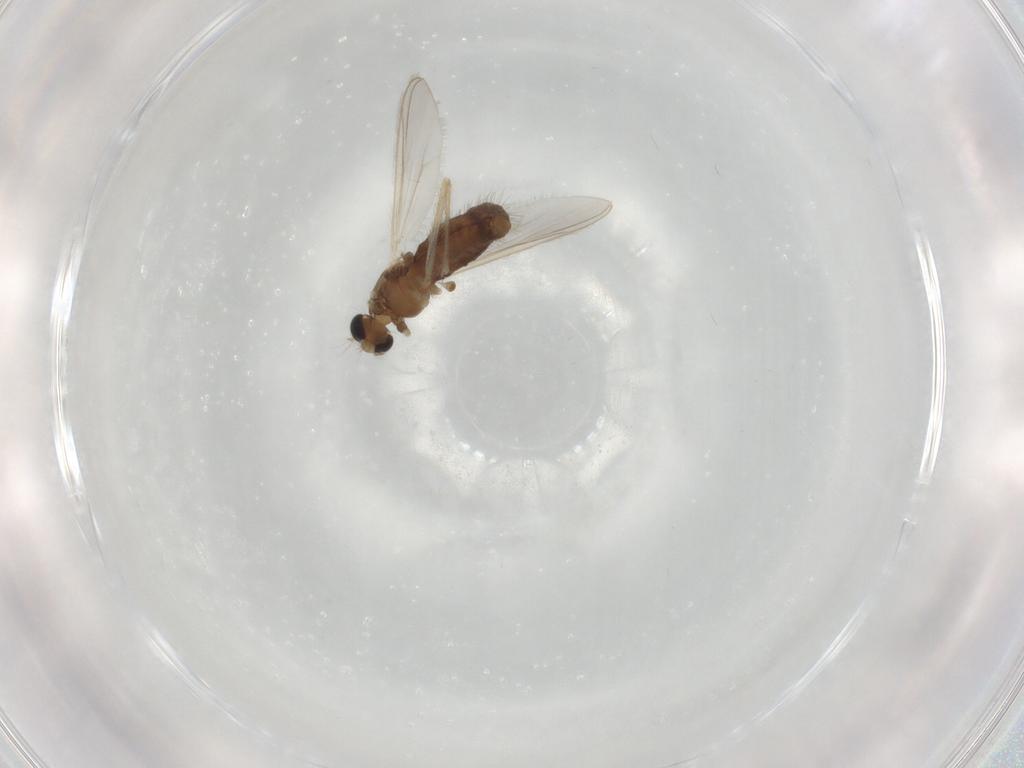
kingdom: Animalia
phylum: Arthropoda
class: Insecta
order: Diptera
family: Chironomidae
